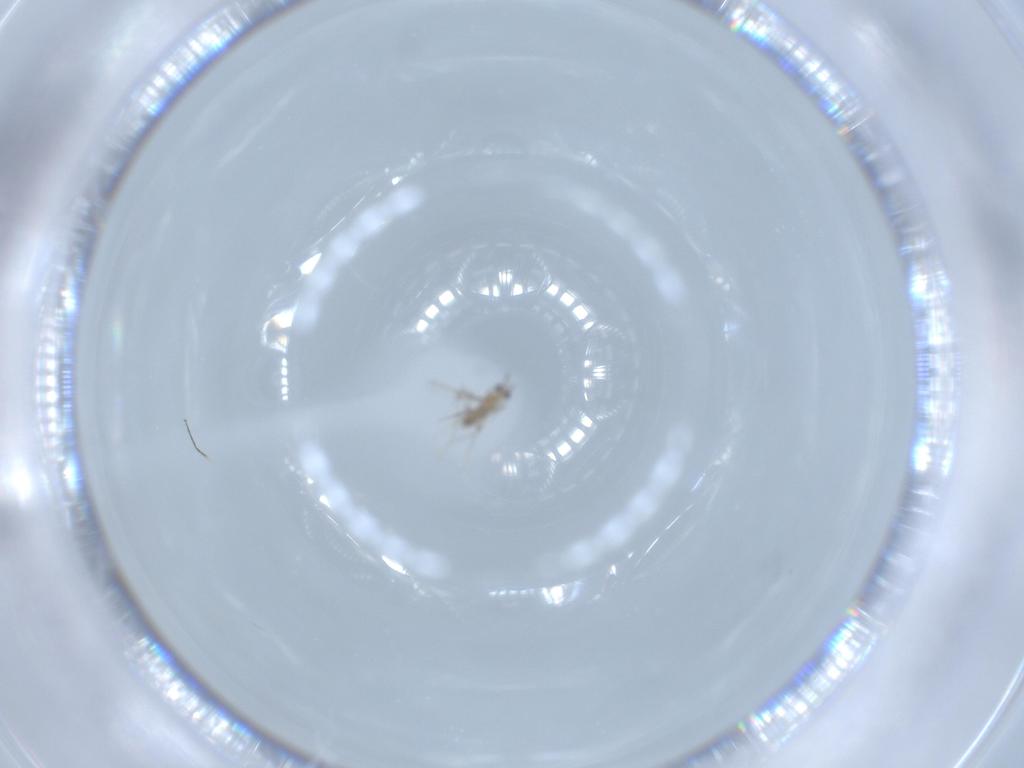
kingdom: Animalia
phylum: Arthropoda
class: Insecta
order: Hymenoptera
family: Mymaridae
